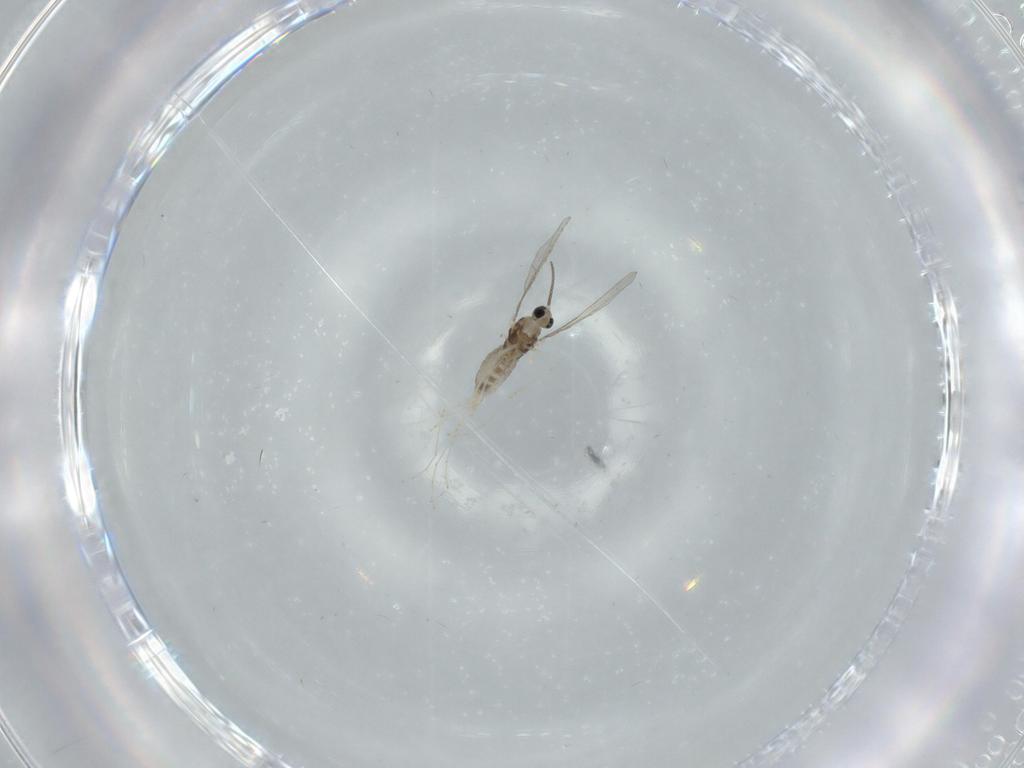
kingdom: Animalia
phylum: Arthropoda
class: Insecta
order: Diptera
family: Cecidomyiidae
